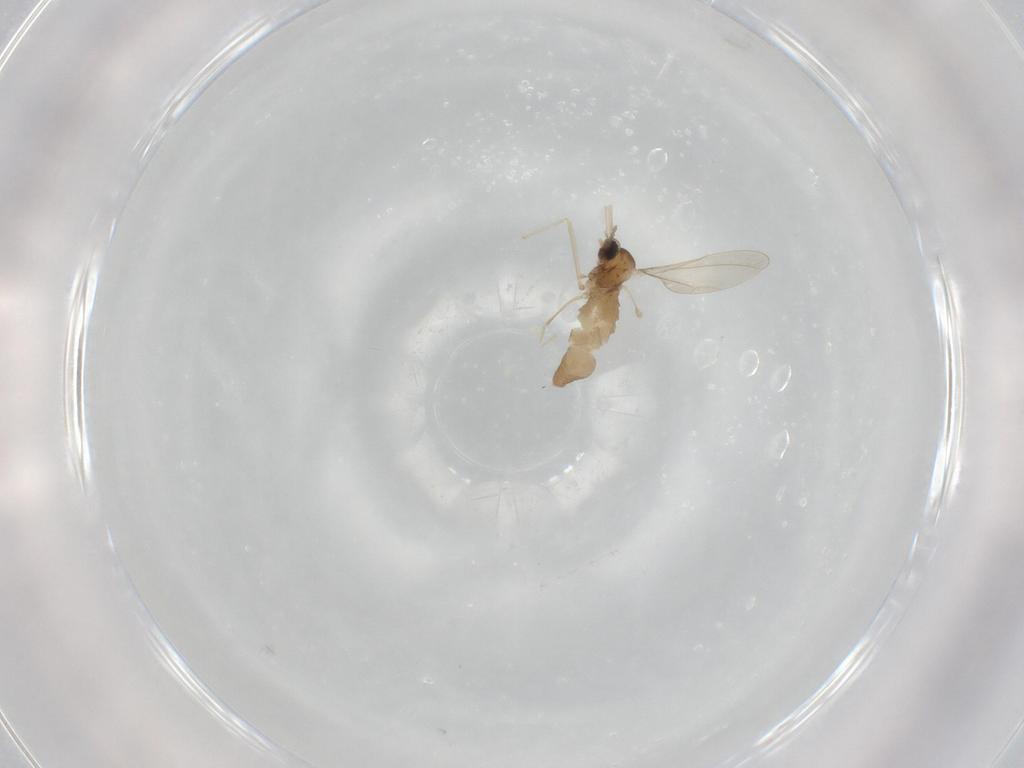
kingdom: Animalia
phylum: Arthropoda
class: Insecta
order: Diptera
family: Cecidomyiidae
